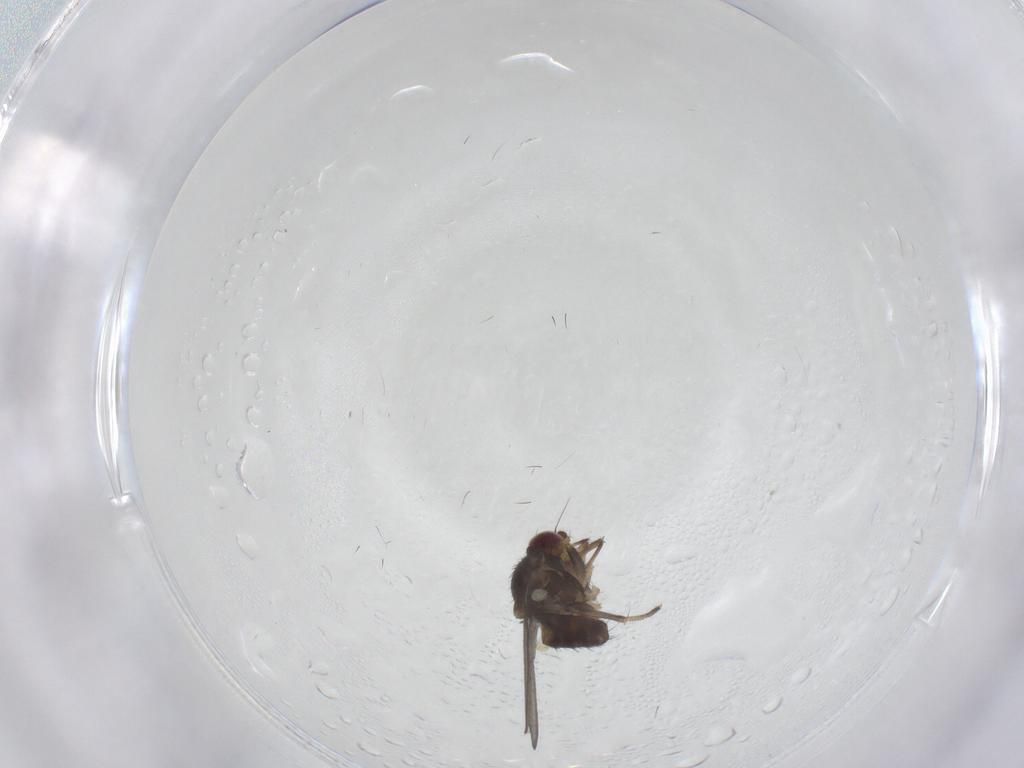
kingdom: Animalia
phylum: Arthropoda
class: Insecta
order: Diptera
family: Chloropidae
